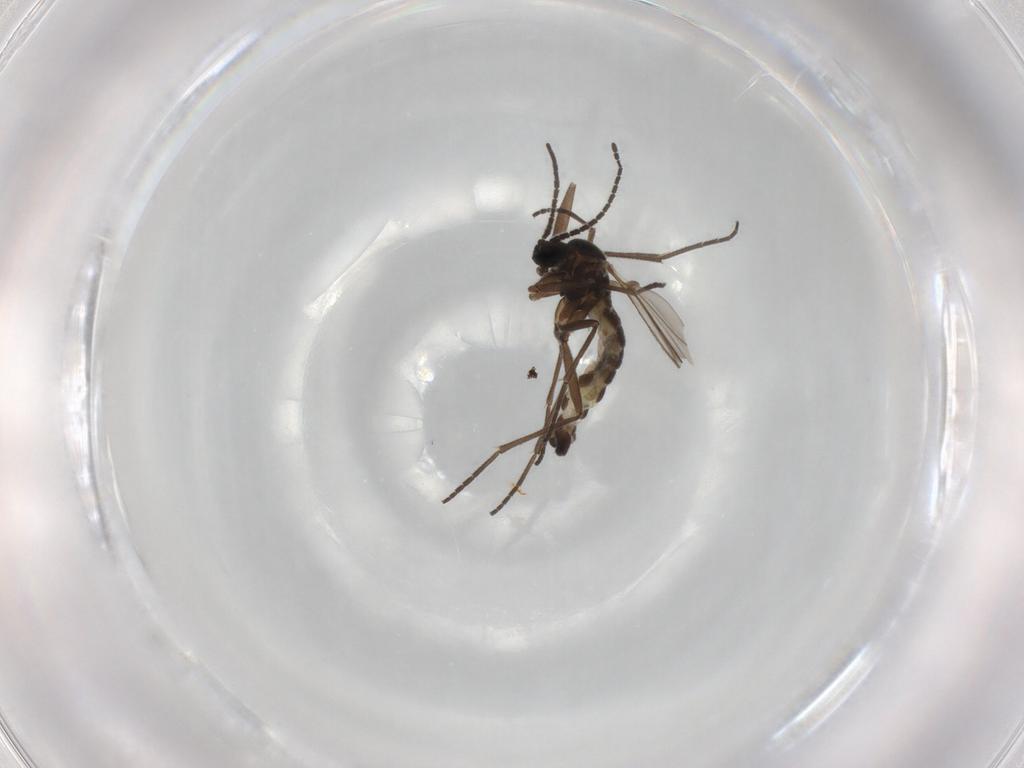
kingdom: Animalia
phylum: Arthropoda
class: Insecta
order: Diptera
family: Sciaridae
